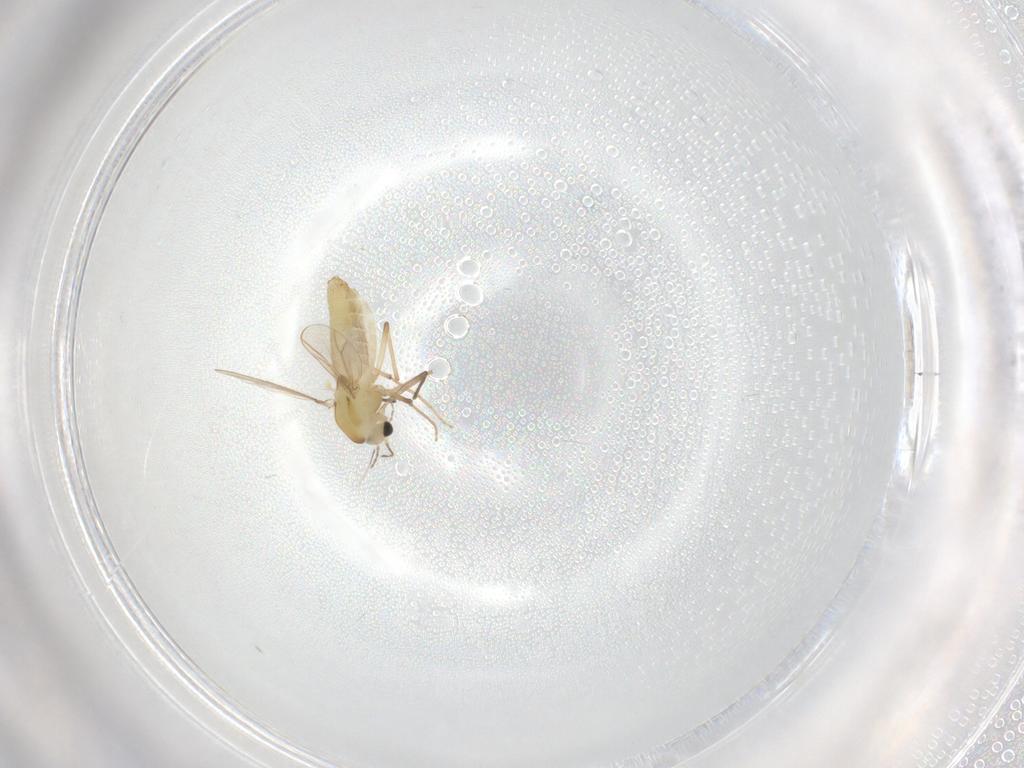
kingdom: Animalia
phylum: Arthropoda
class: Insecta
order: Diptera
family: Cecidomyiidae
